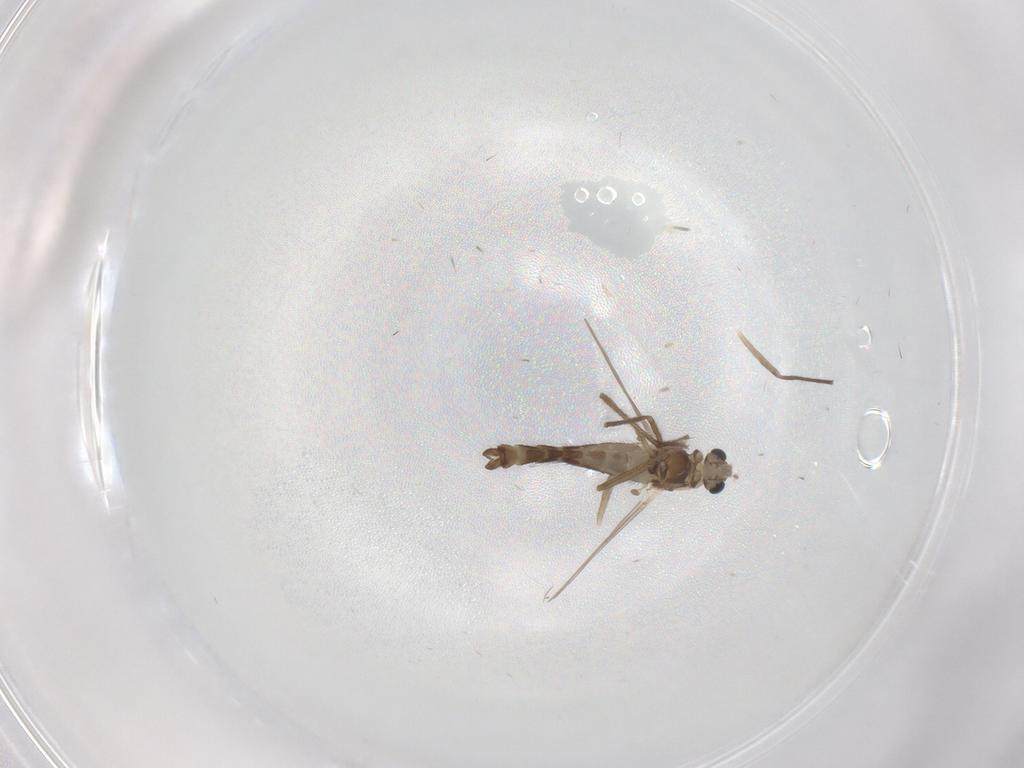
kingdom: Animalia
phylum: Arthropoda
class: Insecta
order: Diptera
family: Chironomidae
